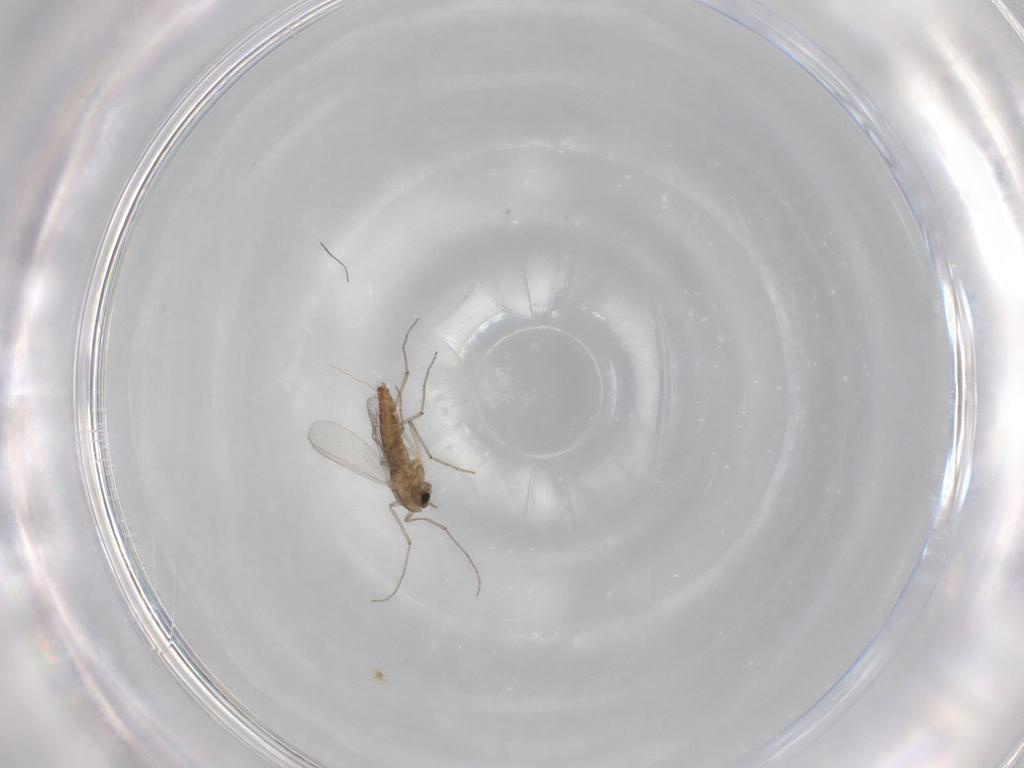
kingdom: Animalia
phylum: Arthropoda
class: Insecta
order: Diptera
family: Chironomidae
